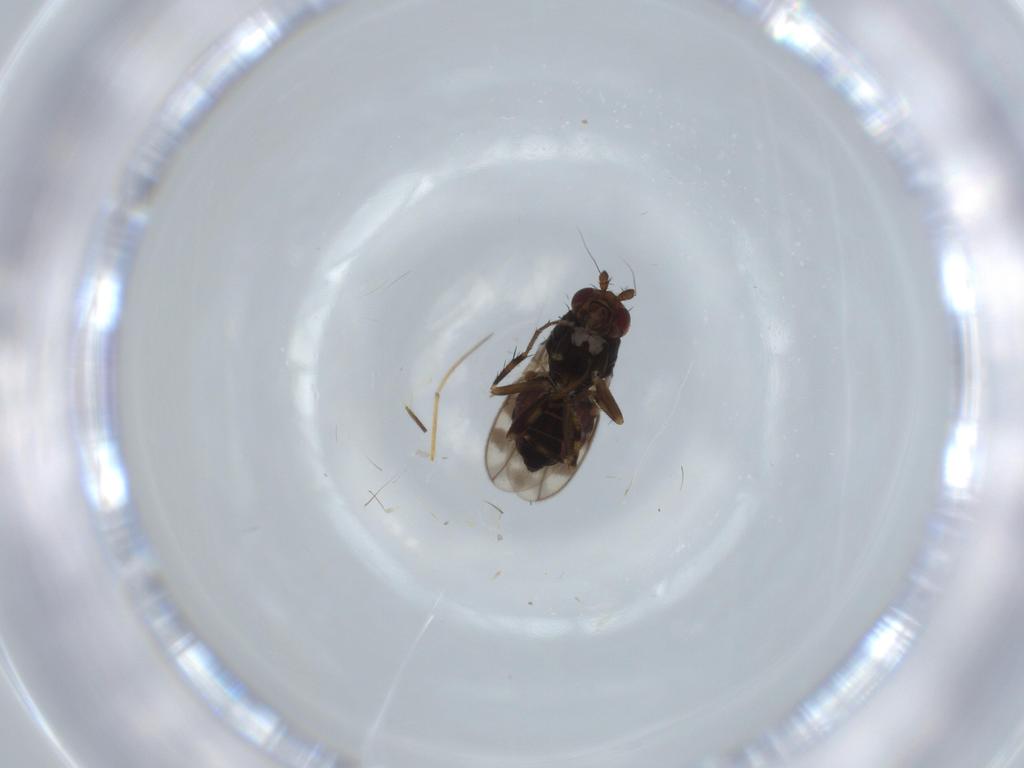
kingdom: Animalia
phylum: Arthropoda
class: Insecta
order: Diptera
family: Sphaeroceridae
